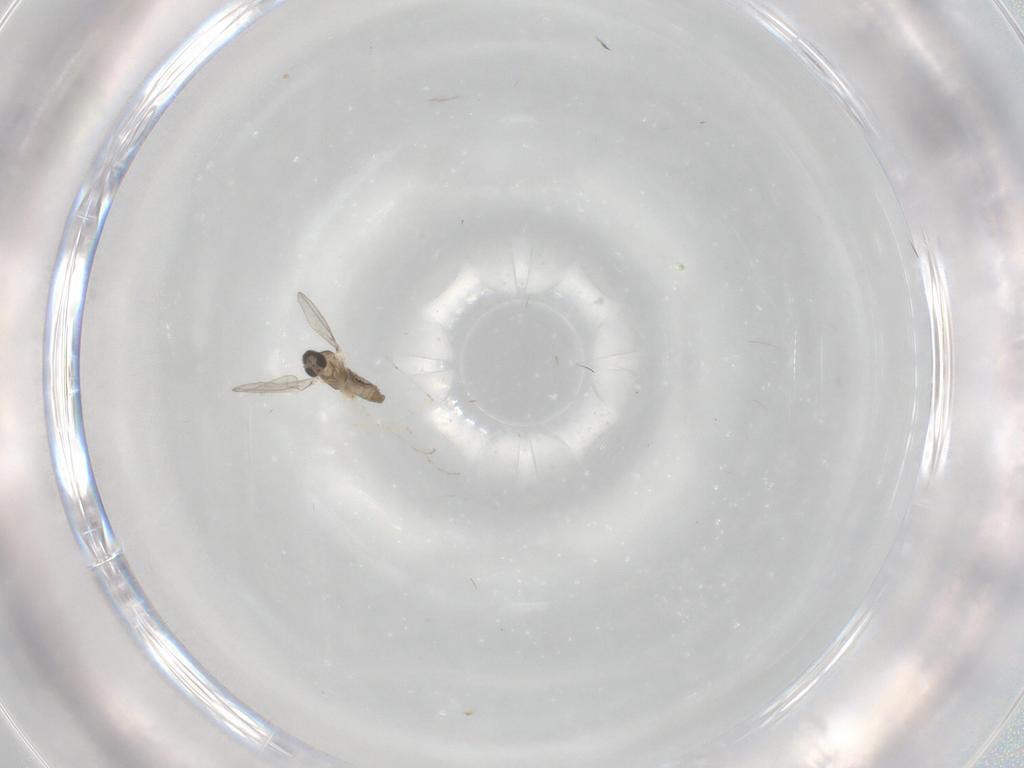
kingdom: Animalia
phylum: Arthropoda
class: Insecta
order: Diptera
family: Cecidomyiidae
